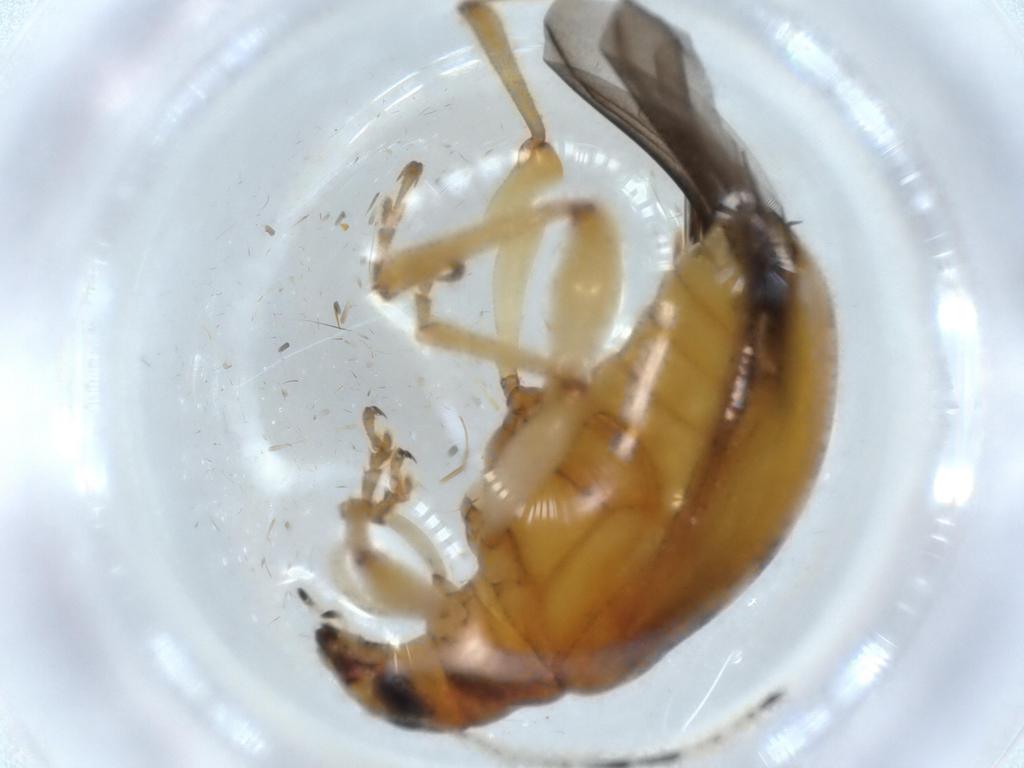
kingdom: Animalia
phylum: Arthropoda
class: Insecta
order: Coleoptera
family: Chrysomelidae
